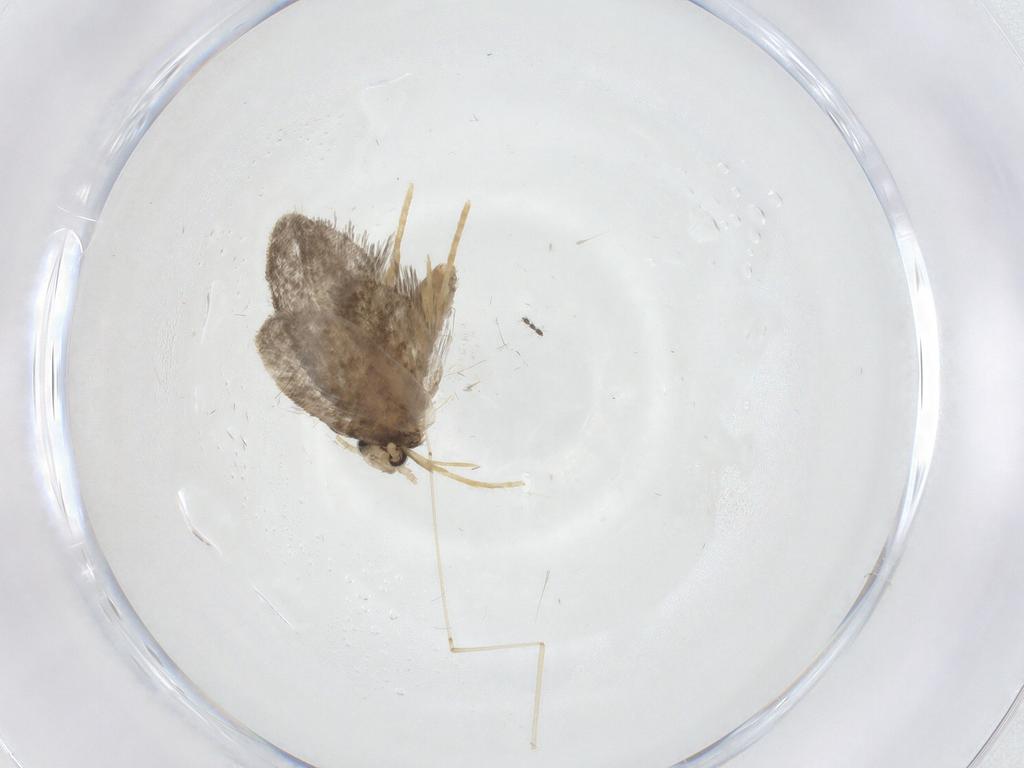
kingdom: Animalia
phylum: Arthropoda
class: Insecta
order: Lepidoptera
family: Psychidae
